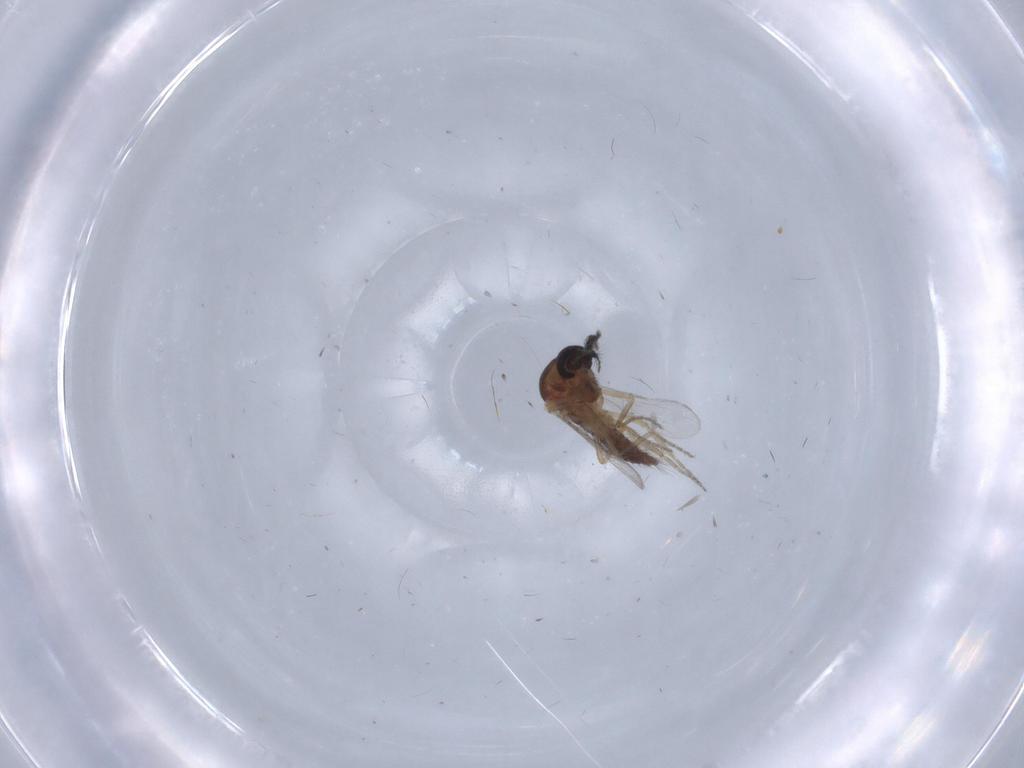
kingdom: Animalia
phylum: Arthropoda
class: Insecta
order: Diptera
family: Ceratopogonidae
